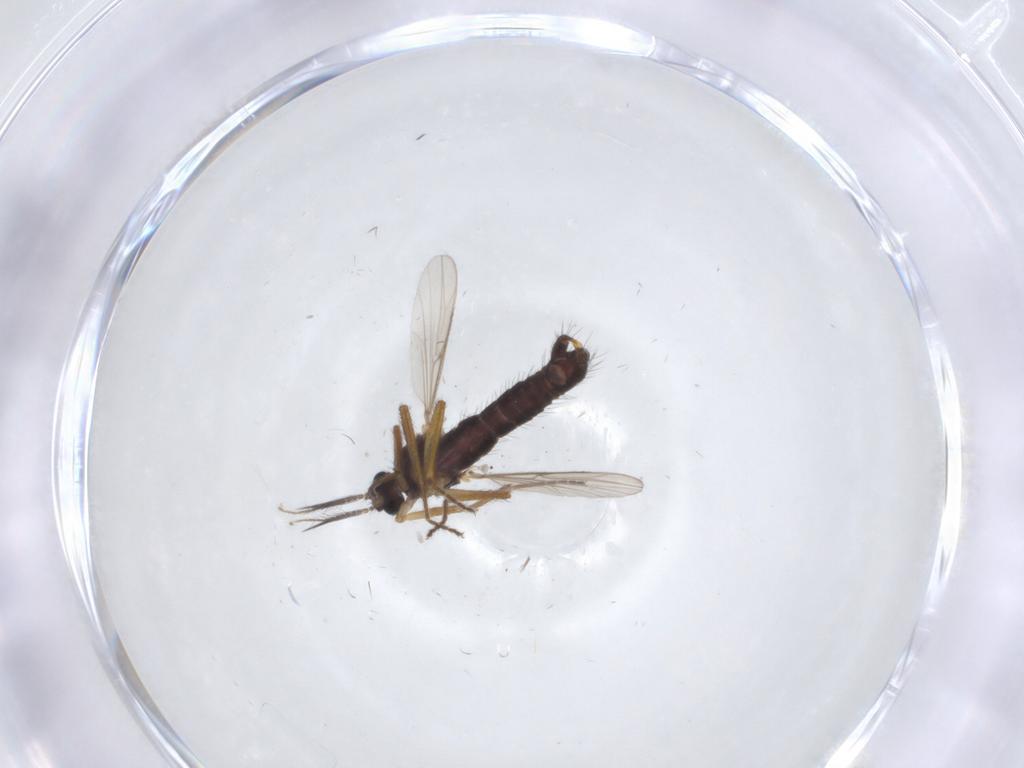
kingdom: Animalia
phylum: Arthropoda
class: Insecta
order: Diptera
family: Ceratopogonidae
